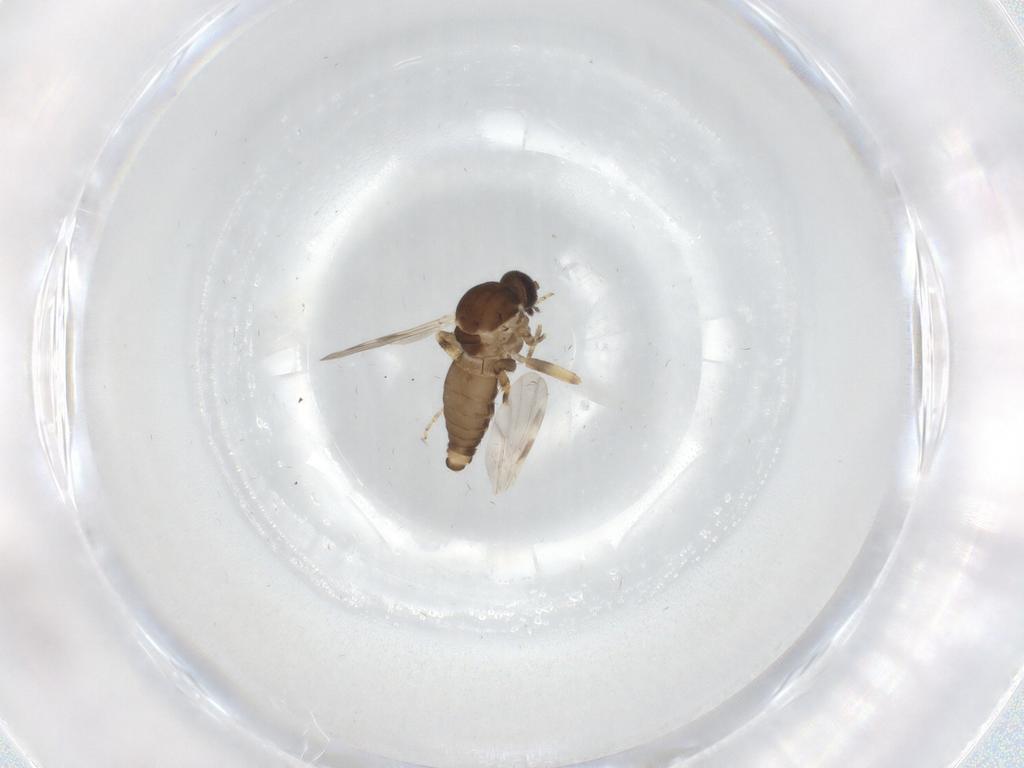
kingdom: Animalia
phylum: Arthropoda
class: Insecta
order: Diptera
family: Ceratopogonidae
